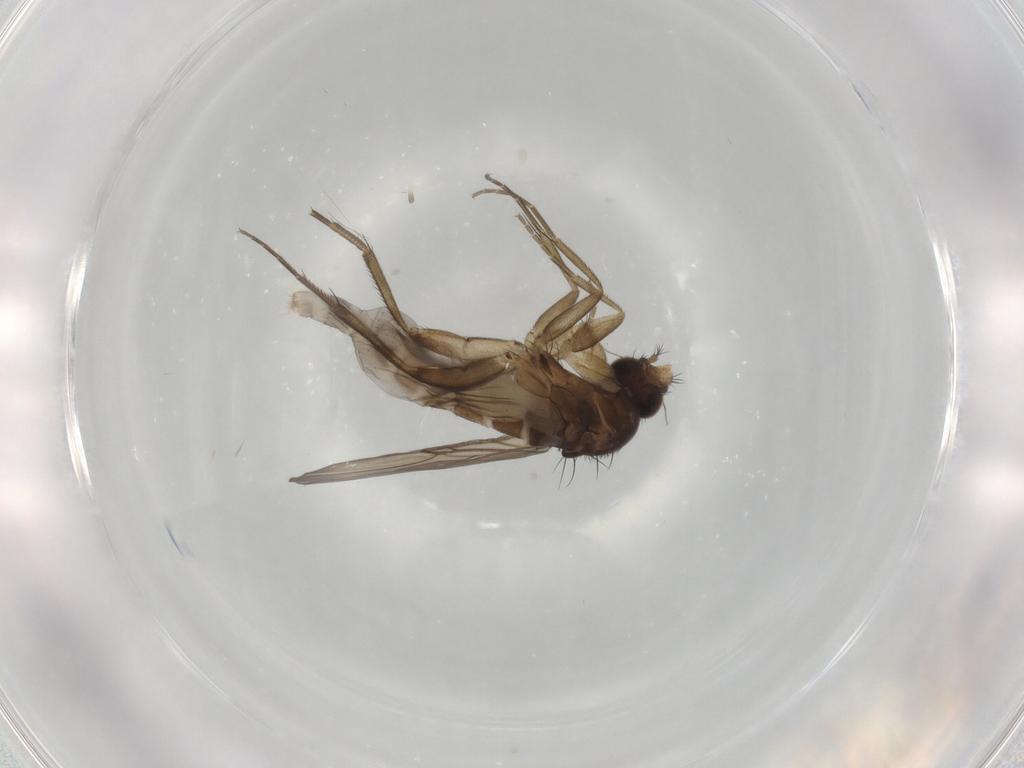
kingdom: Animalia
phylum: Arthropoda
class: Insecta
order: Diptera
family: Phoridae
